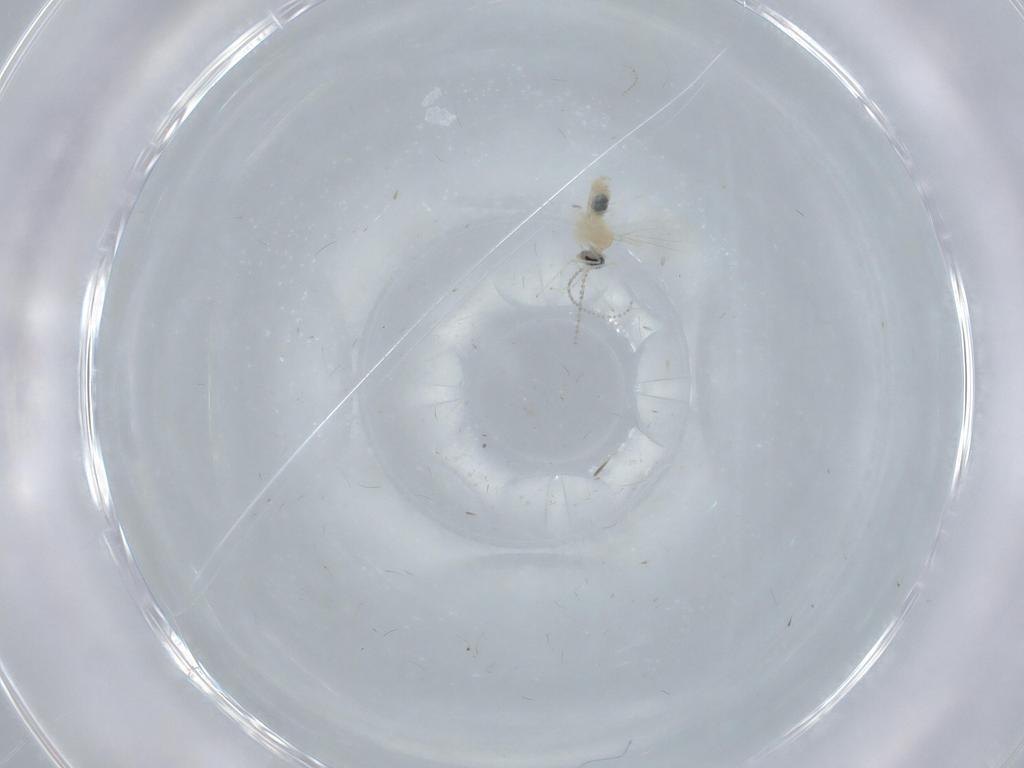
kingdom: Animalia
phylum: Arthropoda
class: Insecta
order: Diptera
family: Cecidomyiidae
